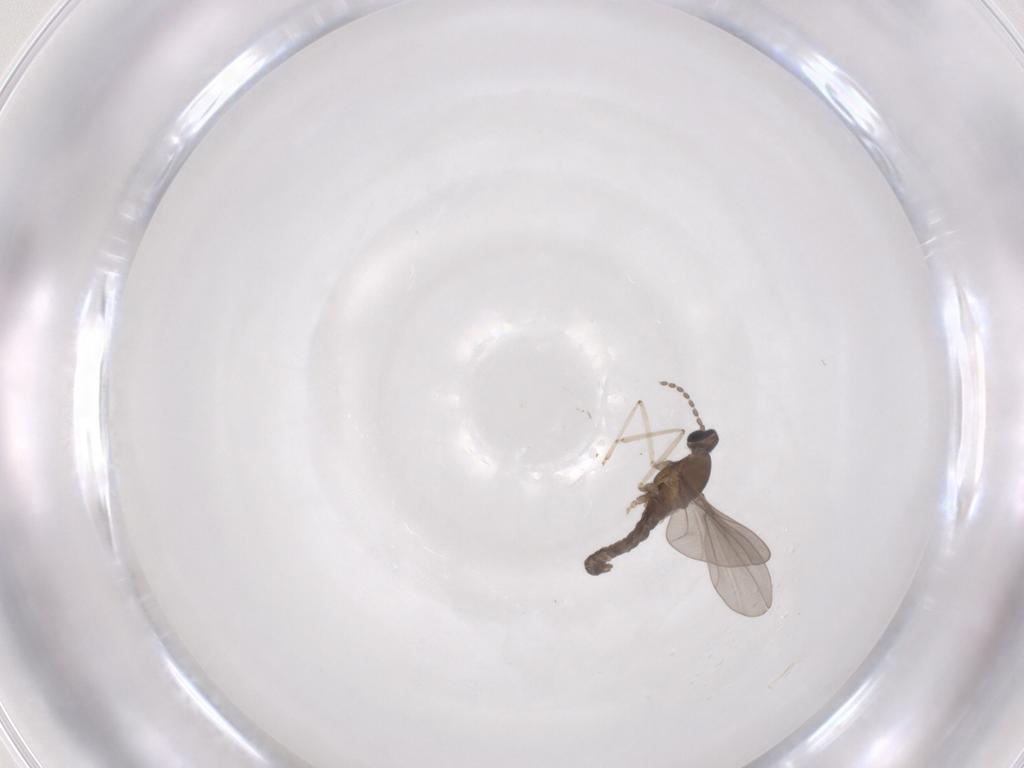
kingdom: Animalia
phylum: Arthropoda
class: Insecta
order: Diptera
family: Cecidomyiidae
